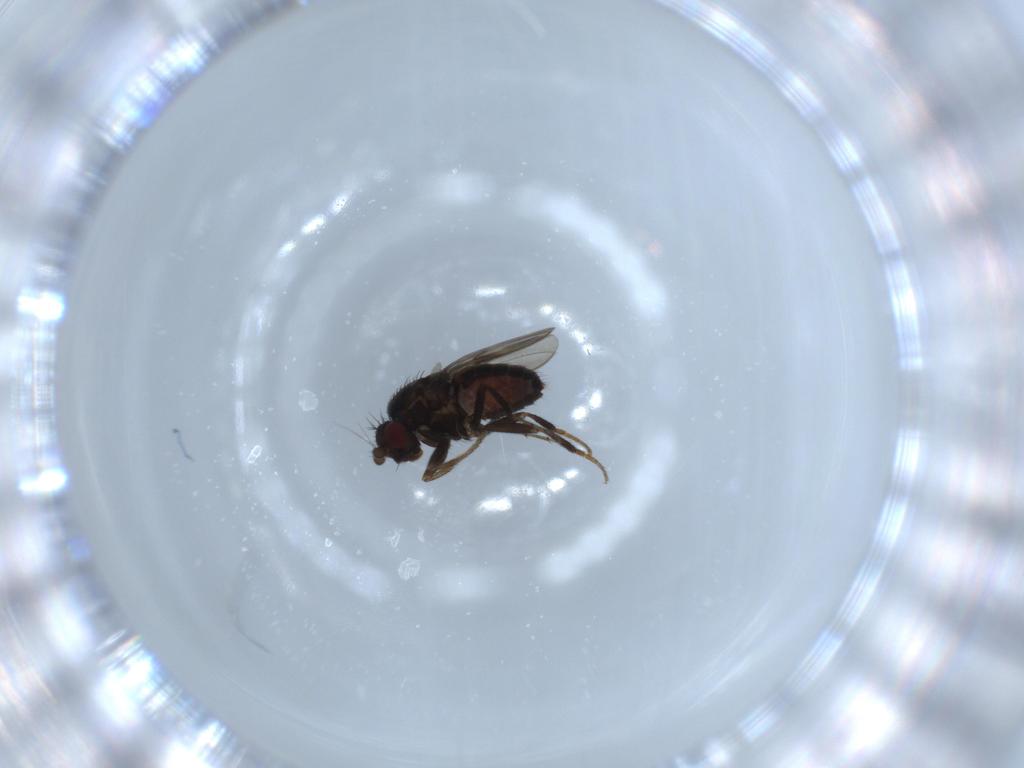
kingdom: Animalia
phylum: Arthropoda
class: Insecta
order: Diptera
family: Sphaeroceridae
